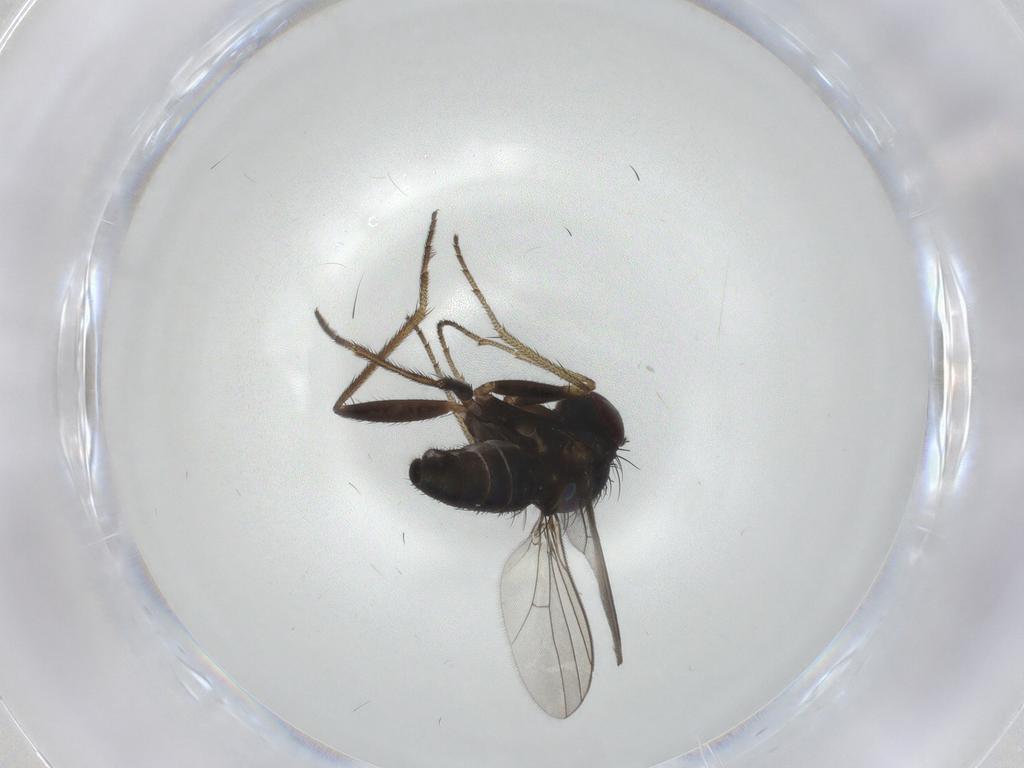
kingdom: Animalia
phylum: Arthropoda
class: Insecta
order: Diptera
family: Dolichopodidae
